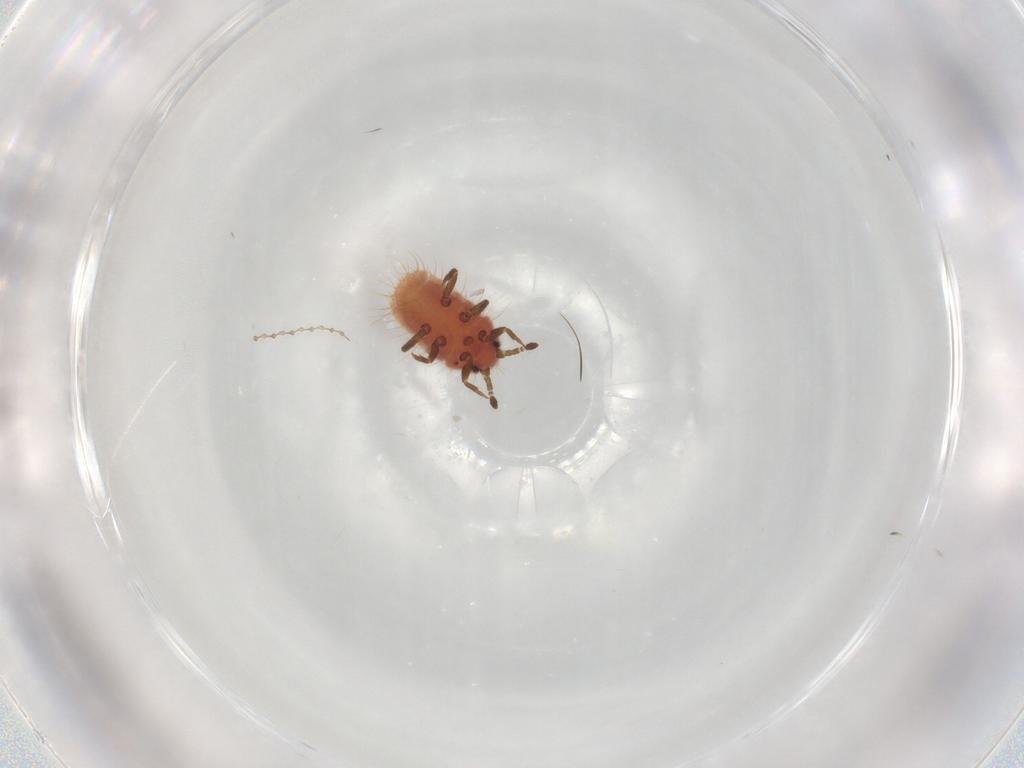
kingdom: Animalia
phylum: Arthropoda
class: Insecta
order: Hemiptera
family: Cicadellidae
